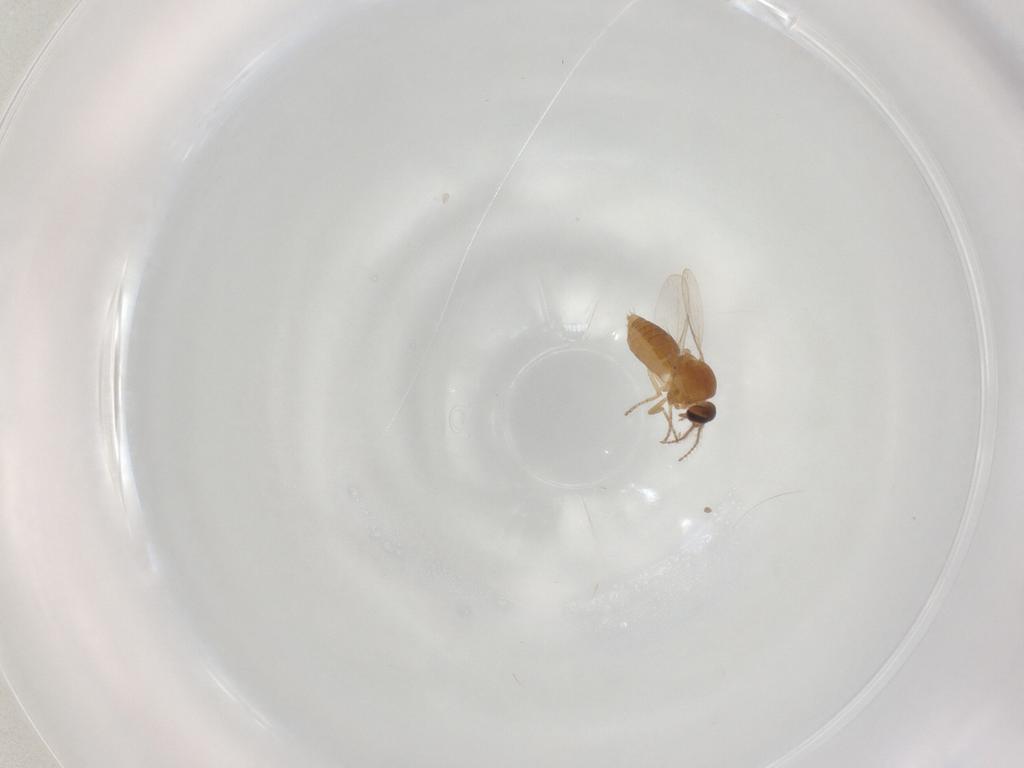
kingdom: Animalia
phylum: Arthropoda
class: Insecta
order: Diptera
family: Ceratopogonidae
